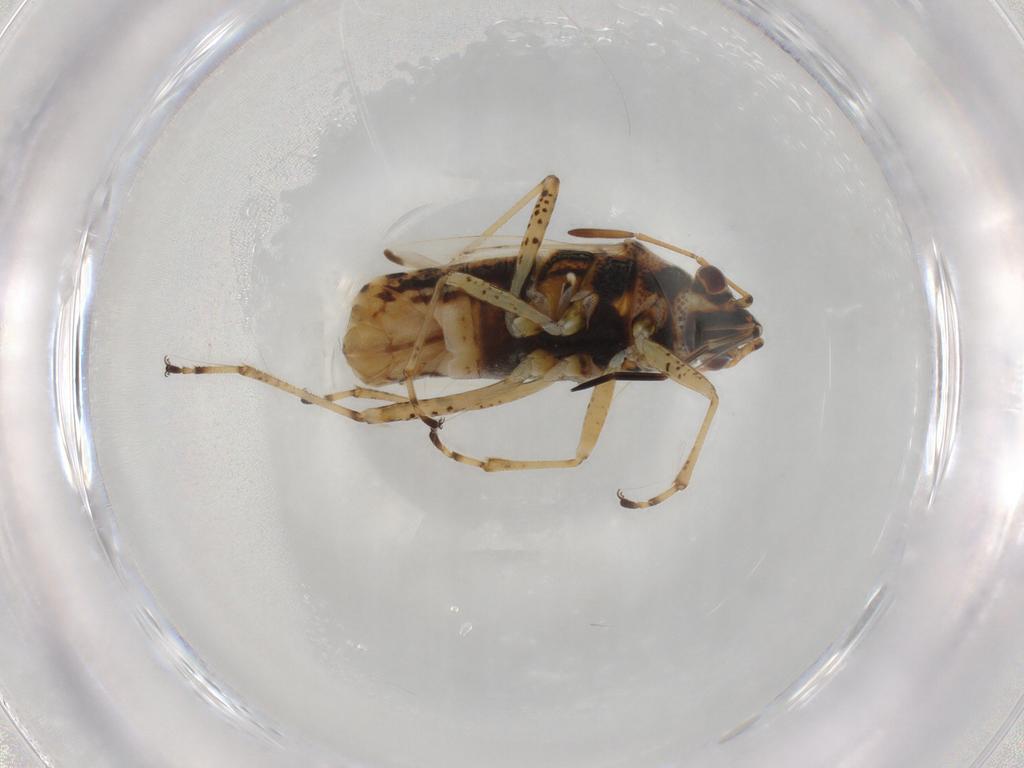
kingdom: Animalia
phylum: Arthropoda
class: Insecta
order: Hemiptera
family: Lygaeidae
